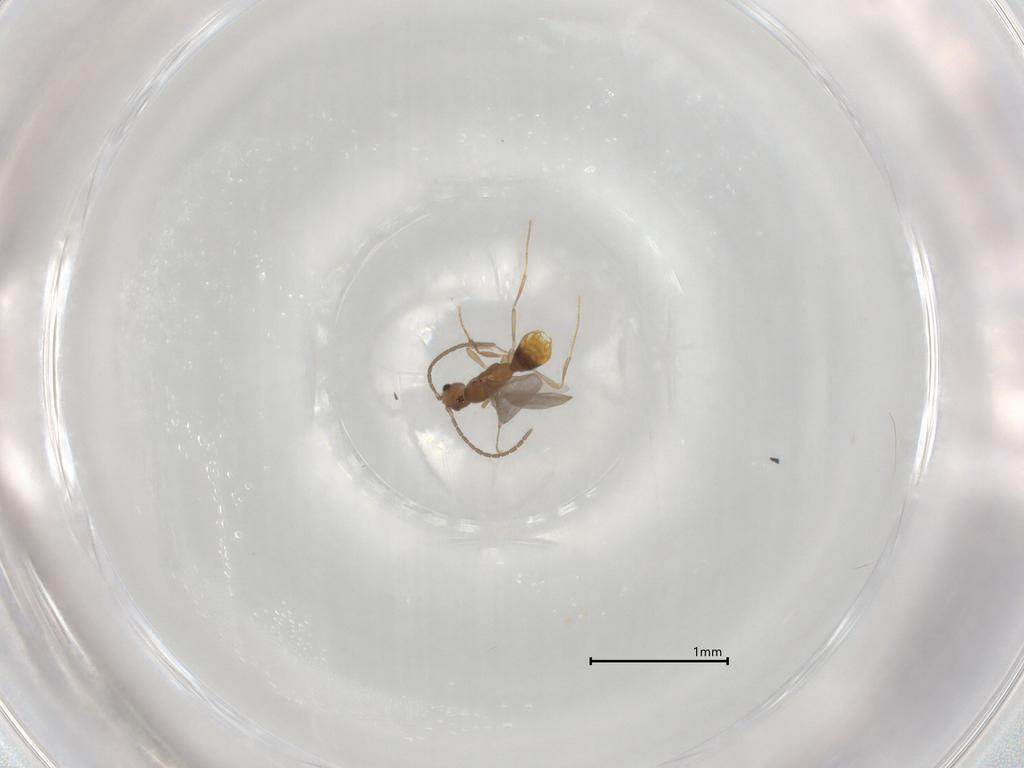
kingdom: Animalia
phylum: Arthropoda
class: Insecta
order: Hymenoptera
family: Formicidae
